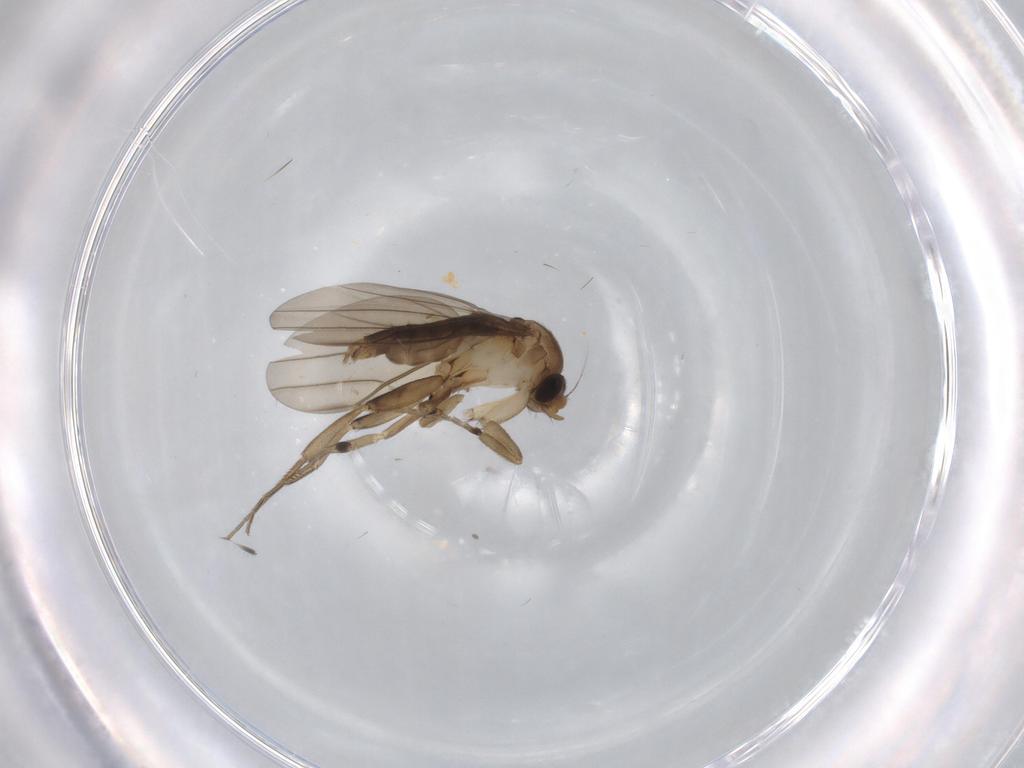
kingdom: Animalia
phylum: Arthropoda
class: Insecta
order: Diptera
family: Phoridae
